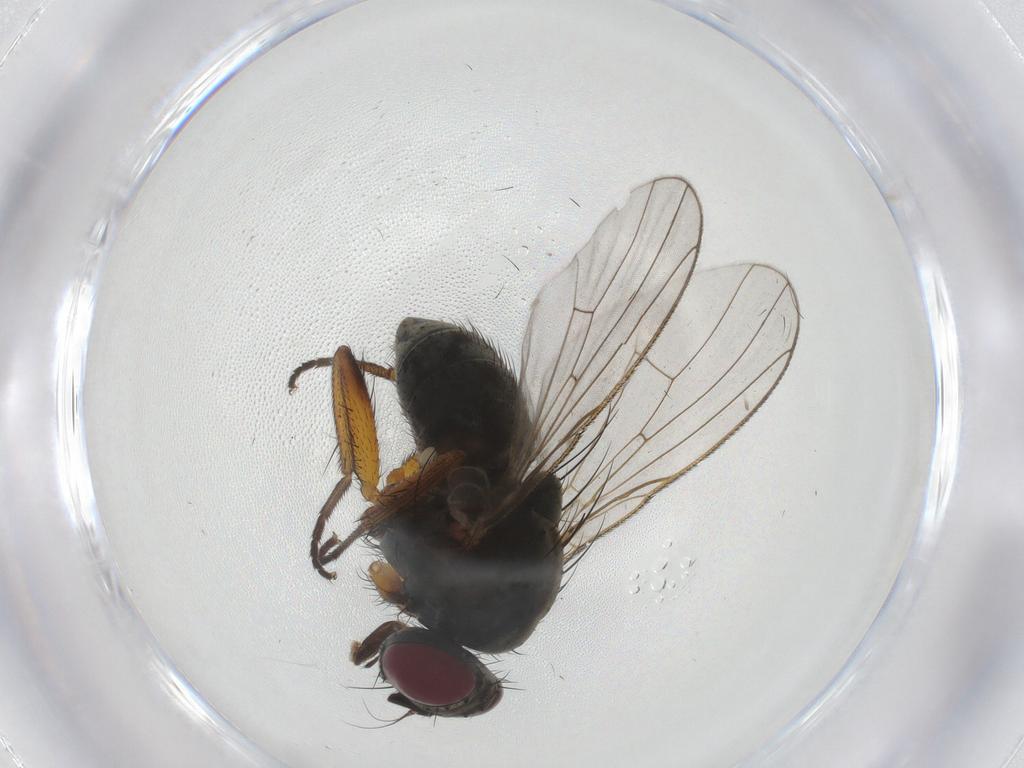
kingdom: Animalia
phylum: Arthropoda
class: Insecta
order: Diptera
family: Muscidae
